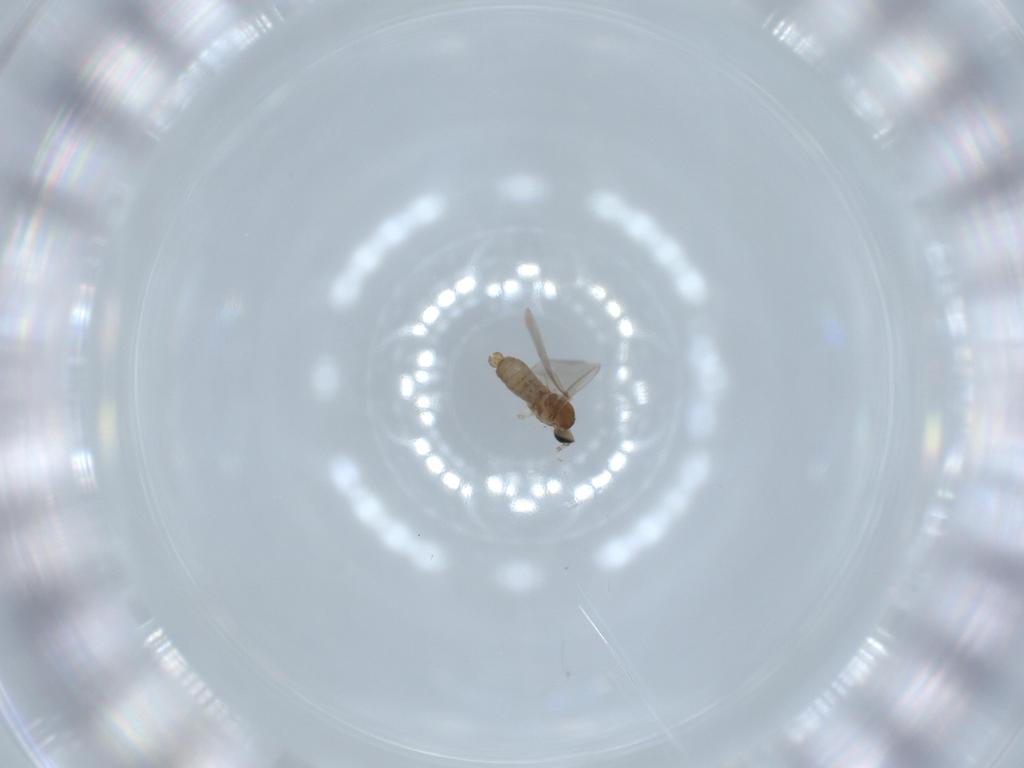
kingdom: Animalia
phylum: Arthropoda
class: Insecta
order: Diptera
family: Cecidomyiidae
